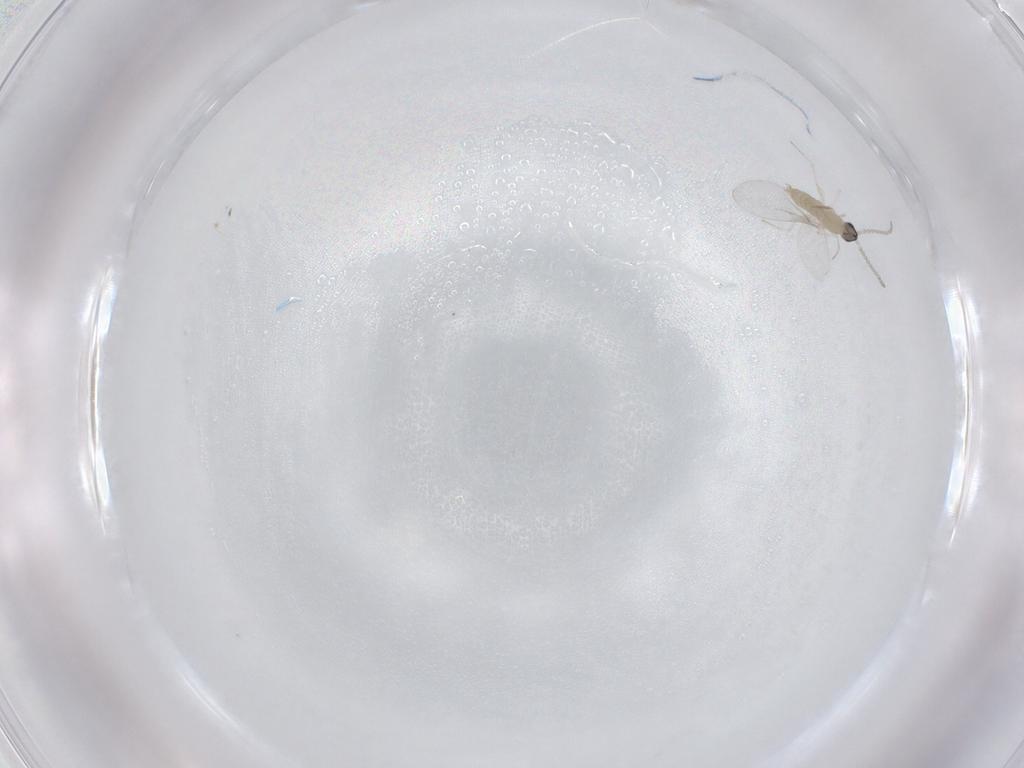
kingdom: Animalia
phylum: Arthropoda
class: Insecta
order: Diptera
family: Cecidomyiidae
